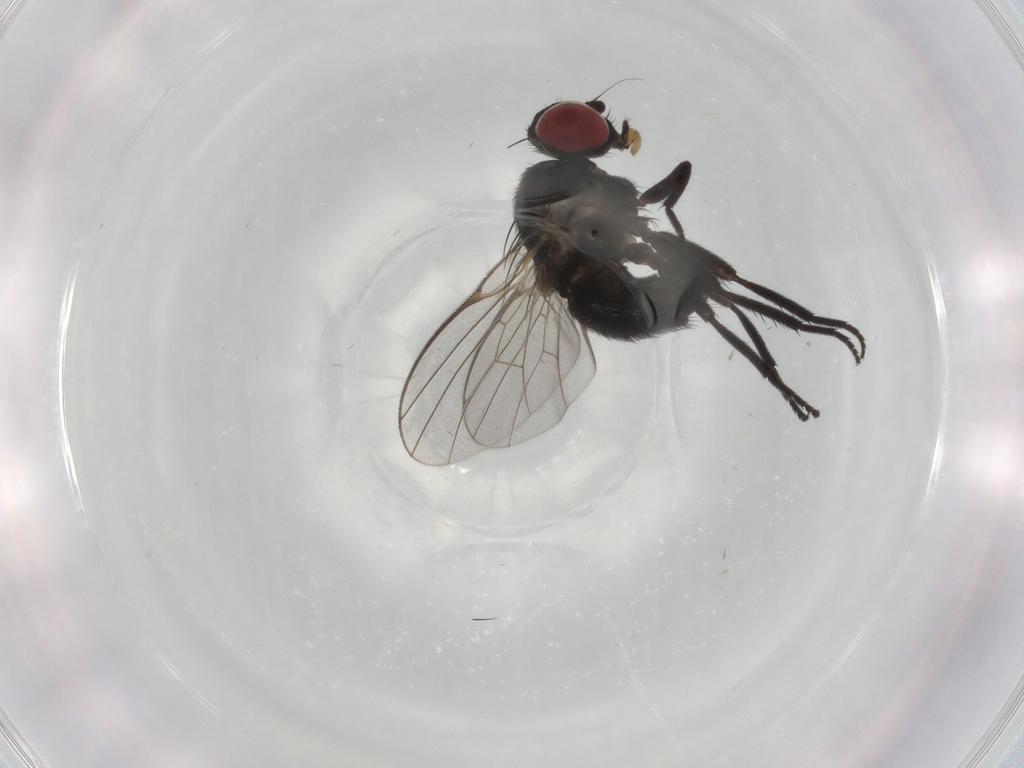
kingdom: Animalia
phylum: Arthropoda
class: Insecta
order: Diptera
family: Agromyzidae
